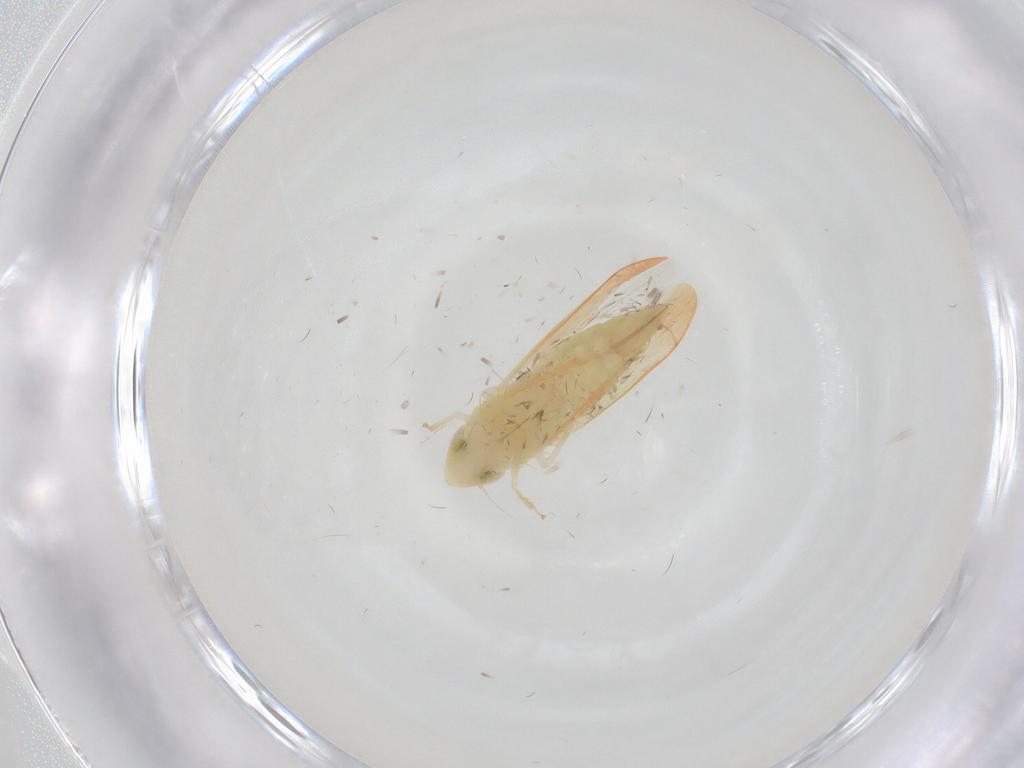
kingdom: Animalia
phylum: Arthropoda
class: Insecta
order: Hemiptera
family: Cicadellidae
